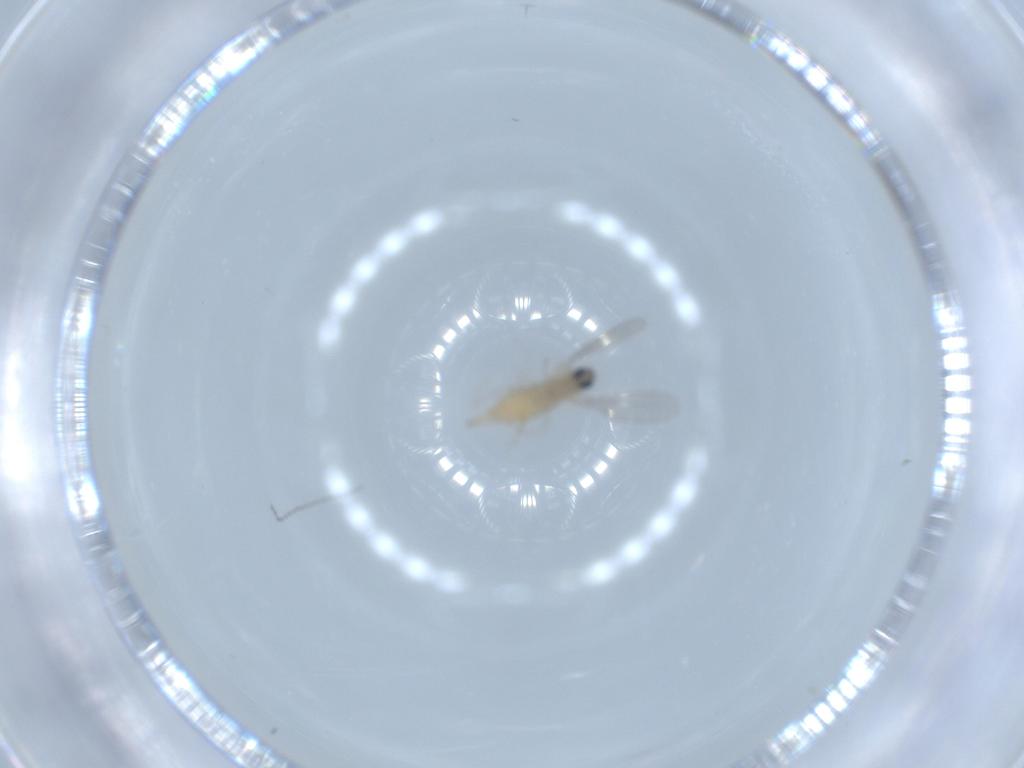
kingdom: Animalia
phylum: Arthropoda
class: Insecta
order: Diptera
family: Cecidomyiidae
